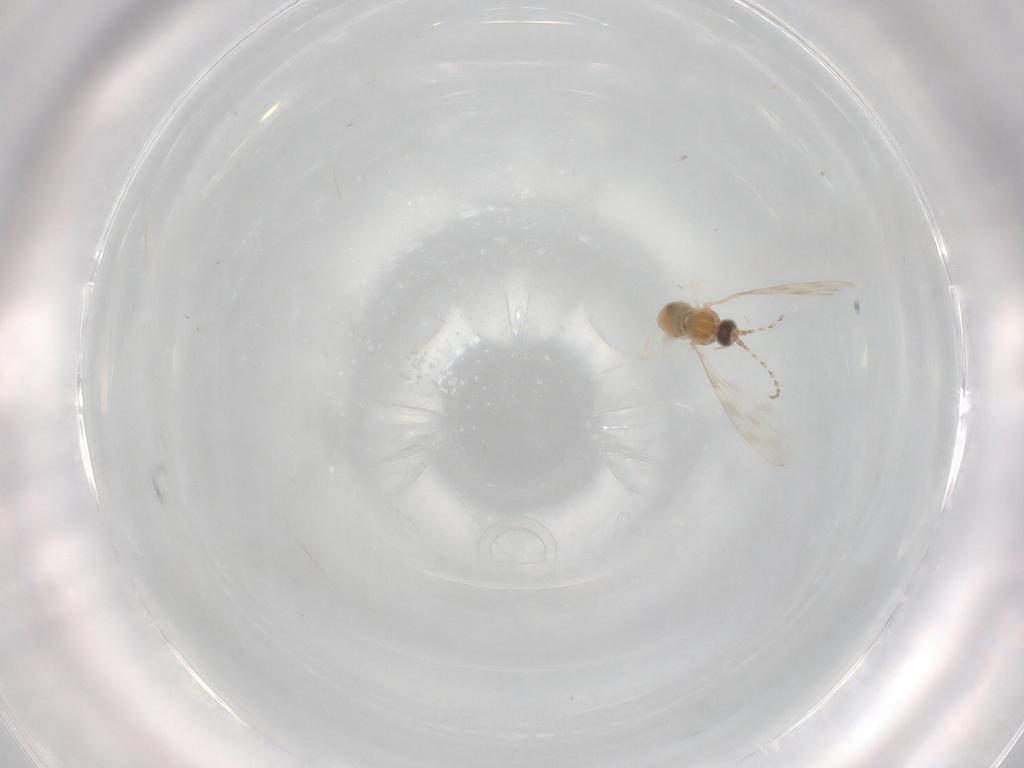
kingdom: Animalia
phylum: Arthropoda
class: Insecta
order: Diptera
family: Cecidomyiidae
